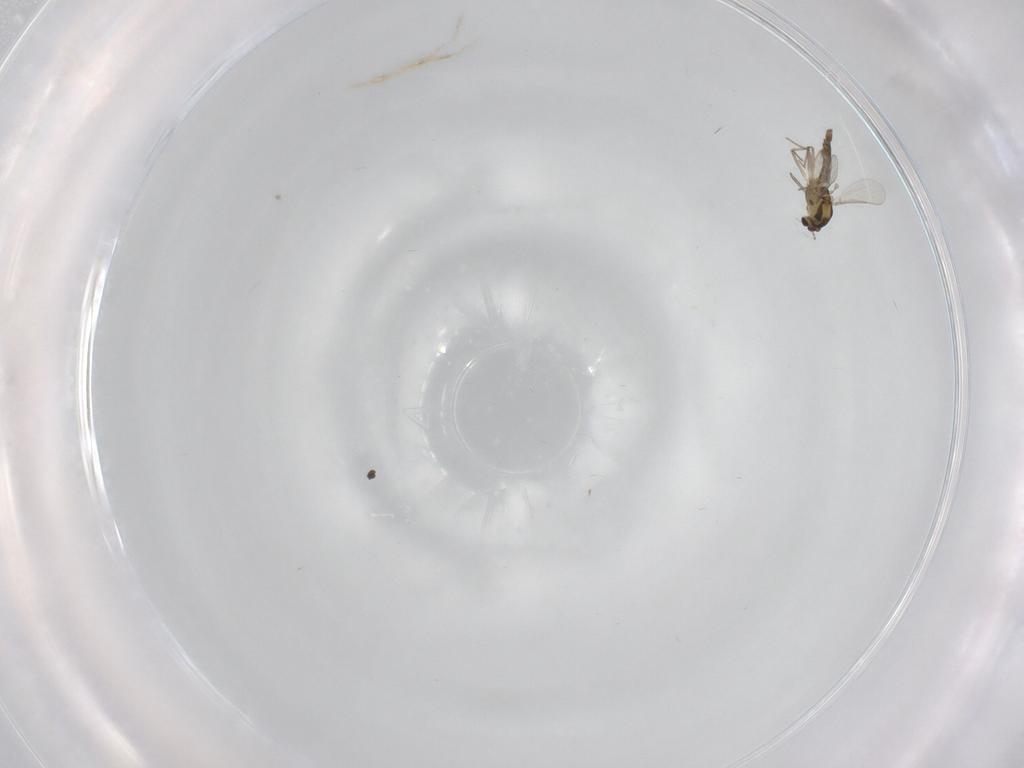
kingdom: Animalia
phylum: Arthropoda
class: Insecta
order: Diptera
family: Chironomidae
